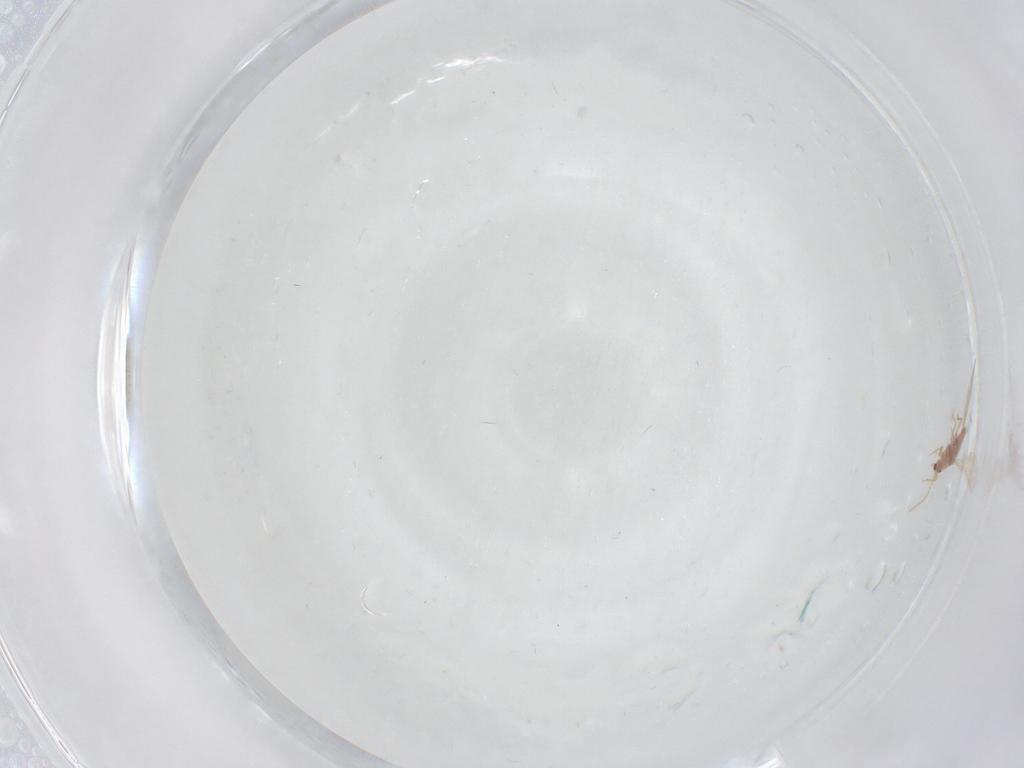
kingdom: Animalia
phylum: Arthropoda
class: Insecta
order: Hemiptera
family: Pseudococcidae
